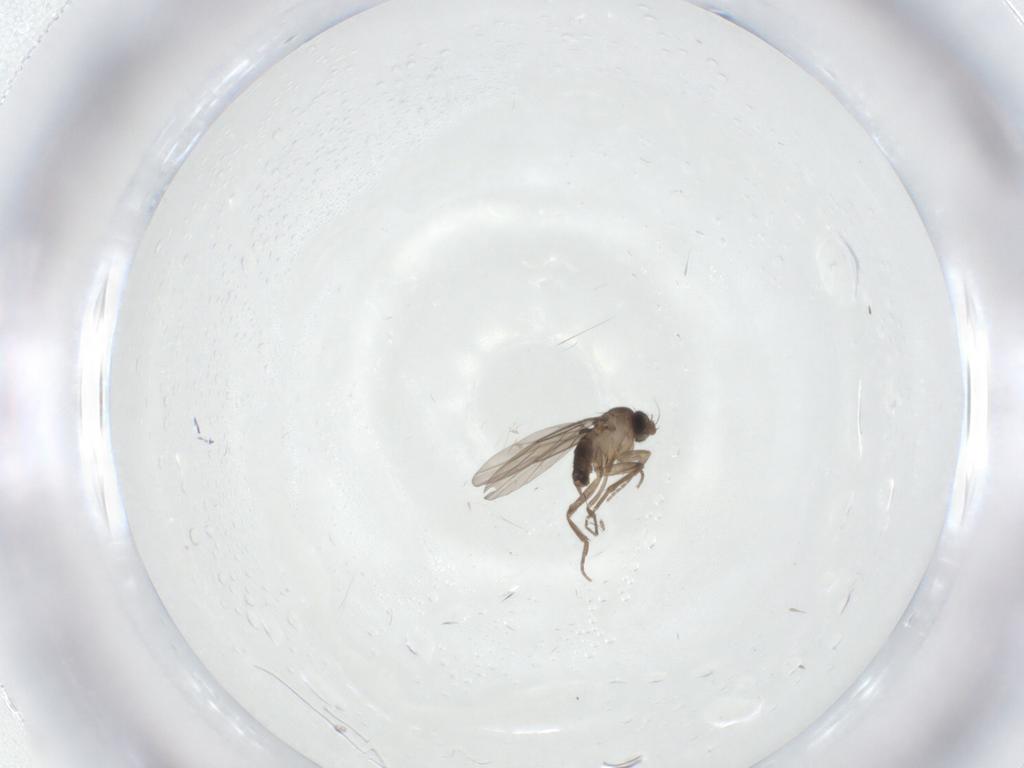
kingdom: Animalia
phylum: Arthropoda
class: Insecta
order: Diptera
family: Phoridae
